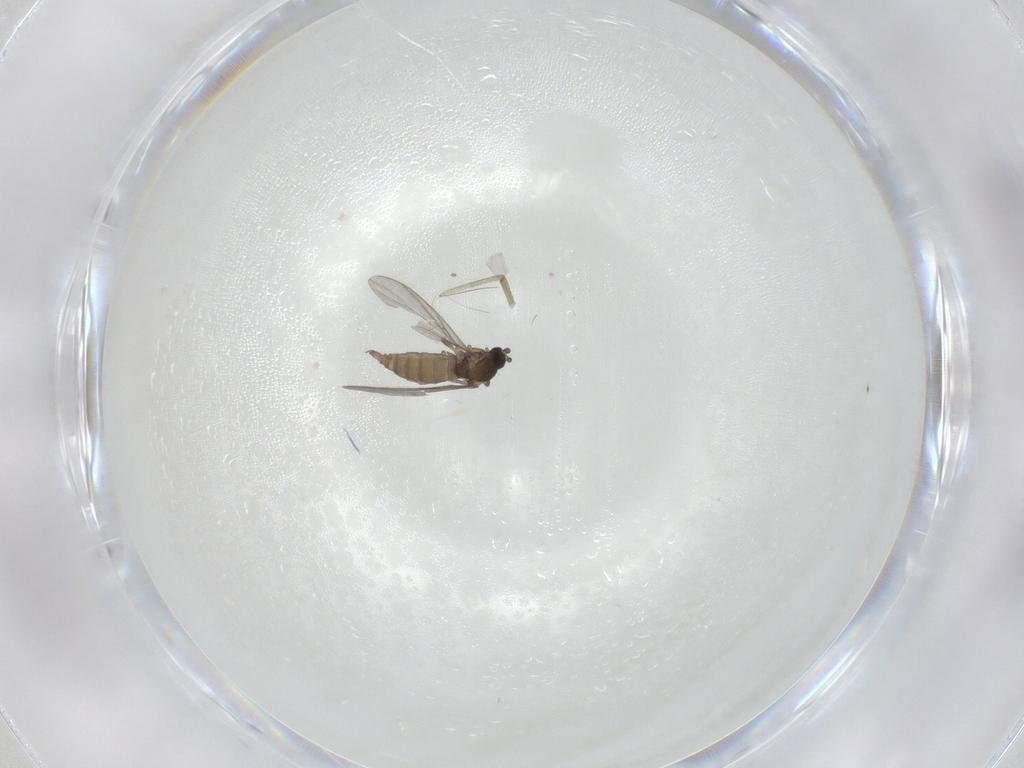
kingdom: Animalia
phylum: Arthropoda
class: Insecta
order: Diptera
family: Sciaridae
